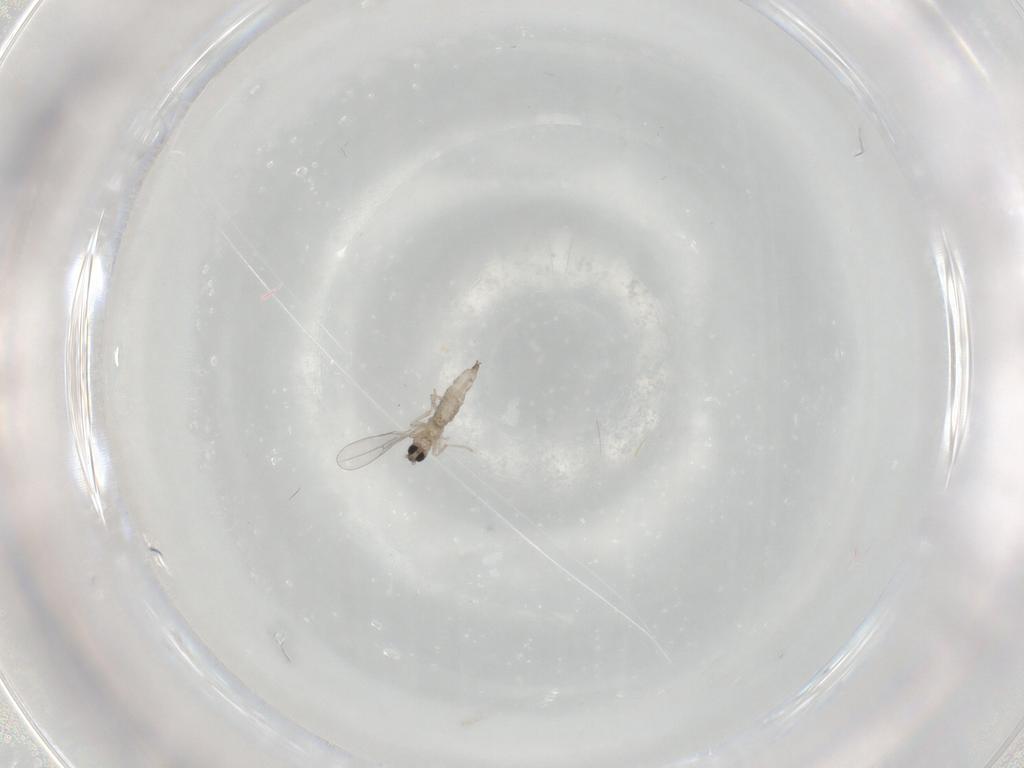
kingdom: Animalia
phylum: Arthropoda
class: Insecta
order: Diptera
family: Cecidomyiidae
